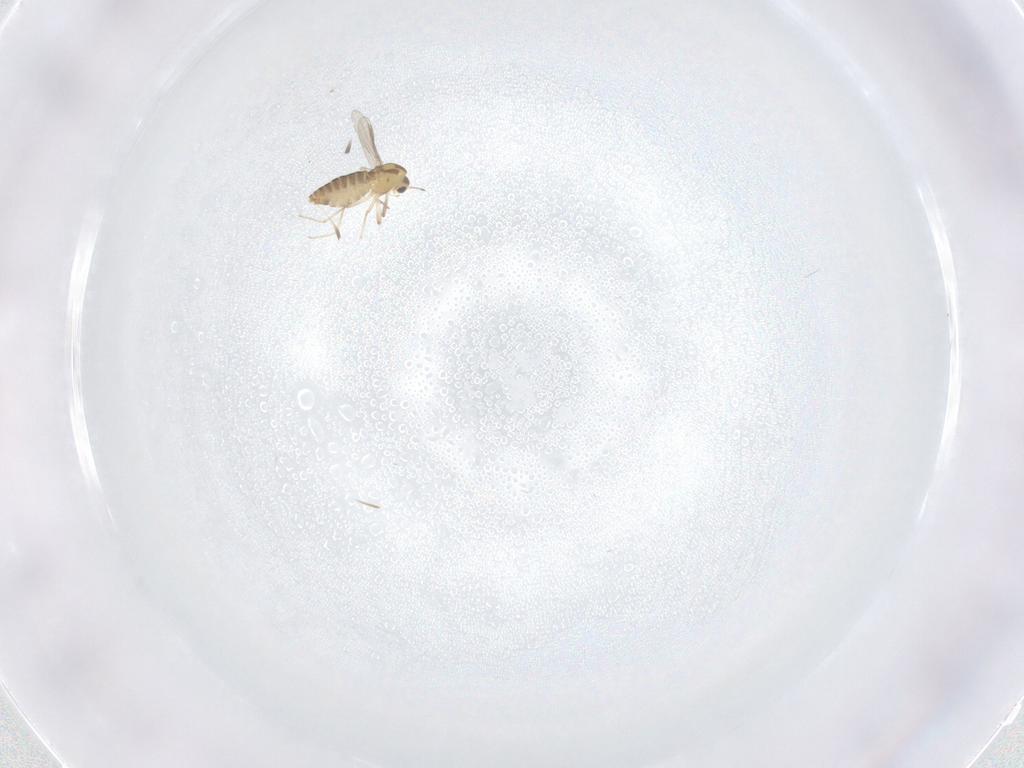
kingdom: Animalia
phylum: Arthropoda
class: Insecta
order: Diptera
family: Chironomidae
